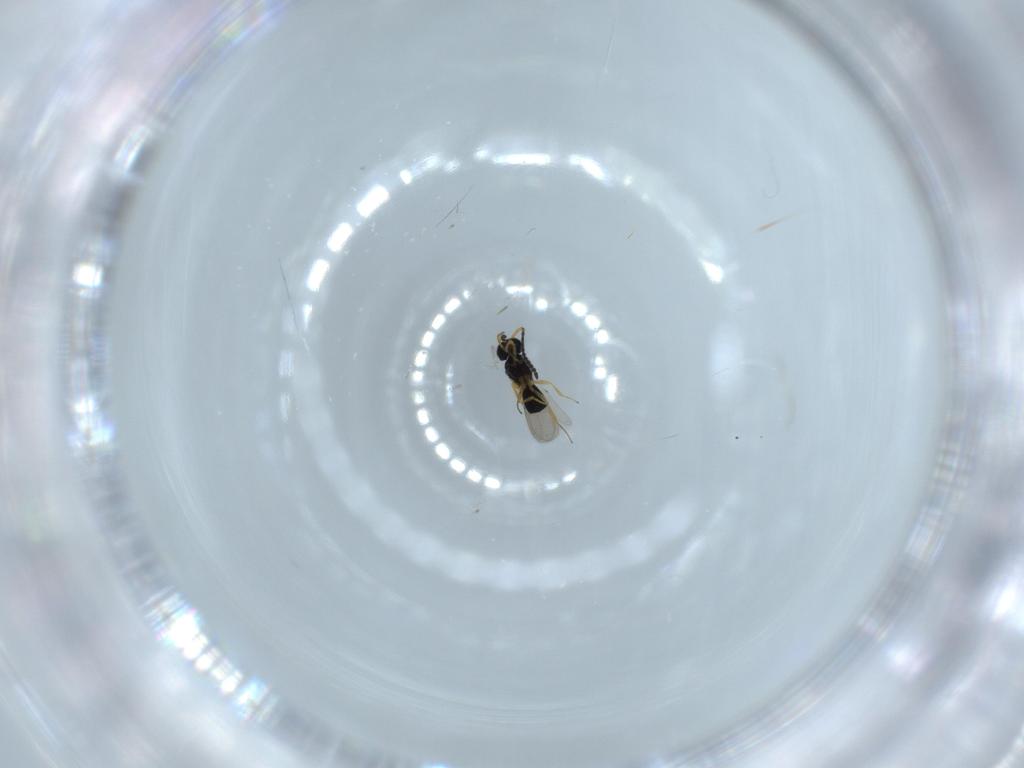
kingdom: Animalia
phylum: Arthropoda
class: Insecta
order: Hymenoptera
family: Scelionidae
